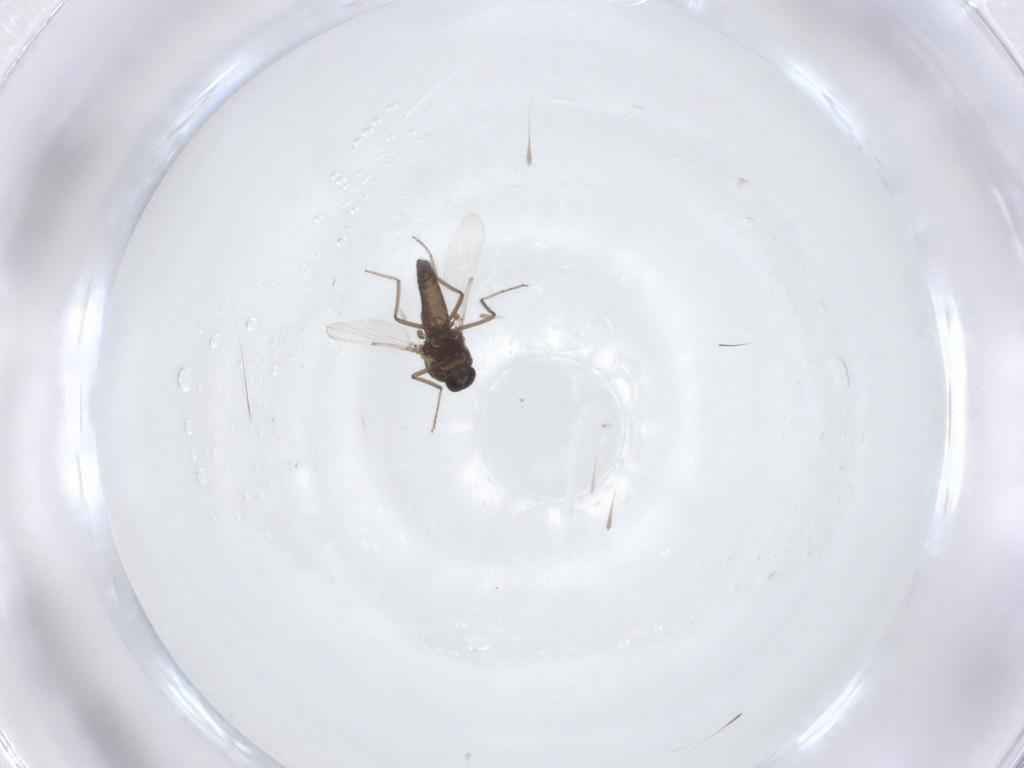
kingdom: Animalia
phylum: Arthropoda
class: Insecta
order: Diptera
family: Ceratopogonidae
